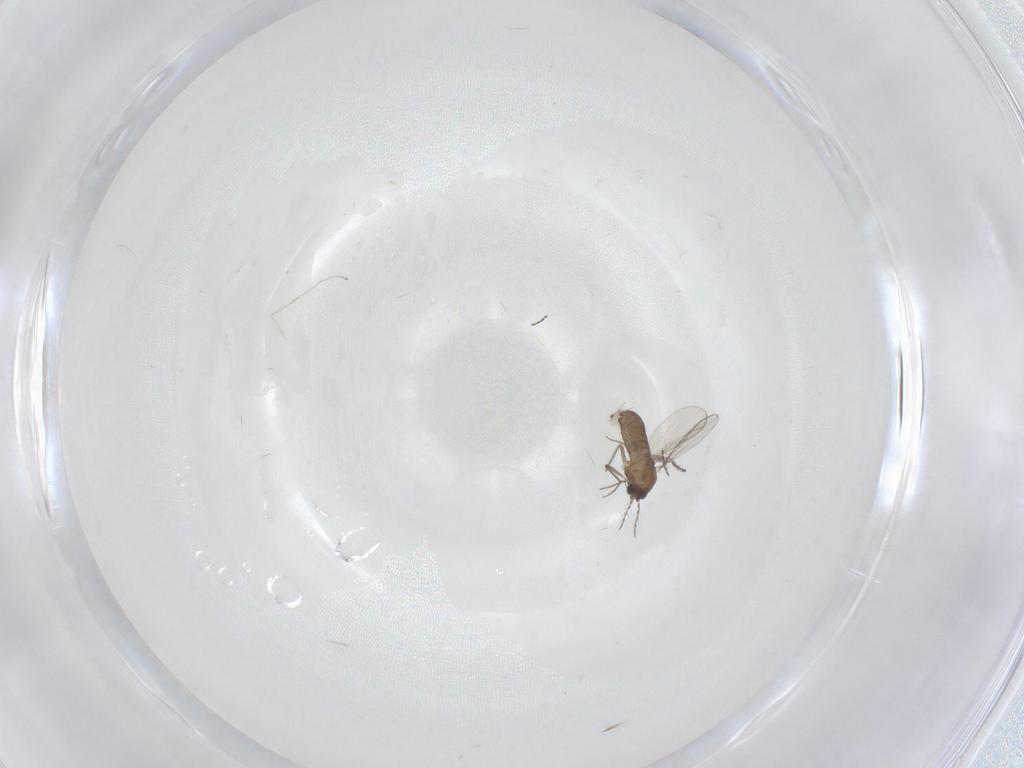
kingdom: Animalia
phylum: Arthropoda
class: Insecta
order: Diptera
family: Chironomidae
